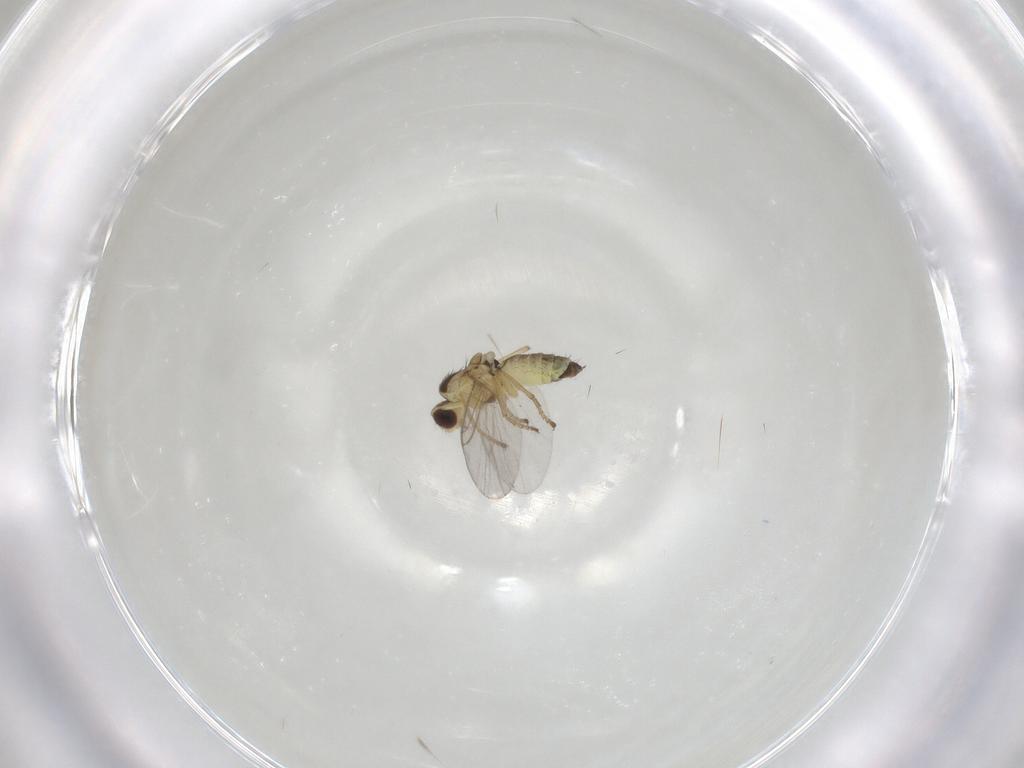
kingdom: Animalia
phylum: Arthropoda
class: Insecta
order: Diptera
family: Agromyzidae
